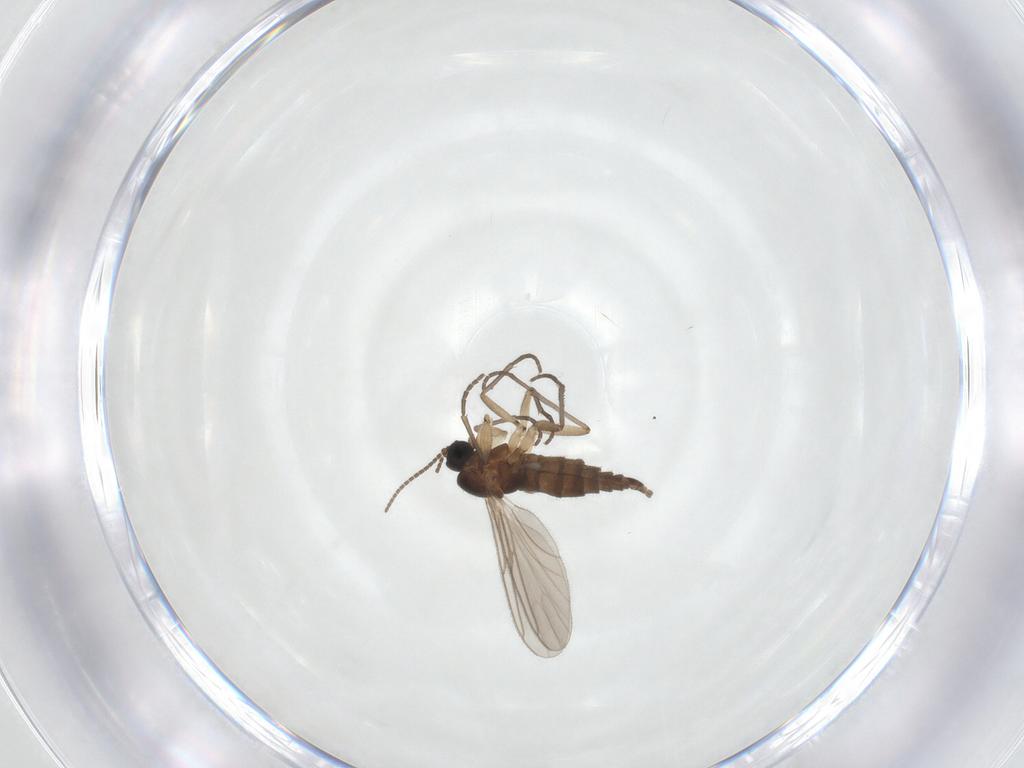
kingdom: Animalia
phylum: Arthropoda
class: Insecta
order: Diptera
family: Sciaridae
